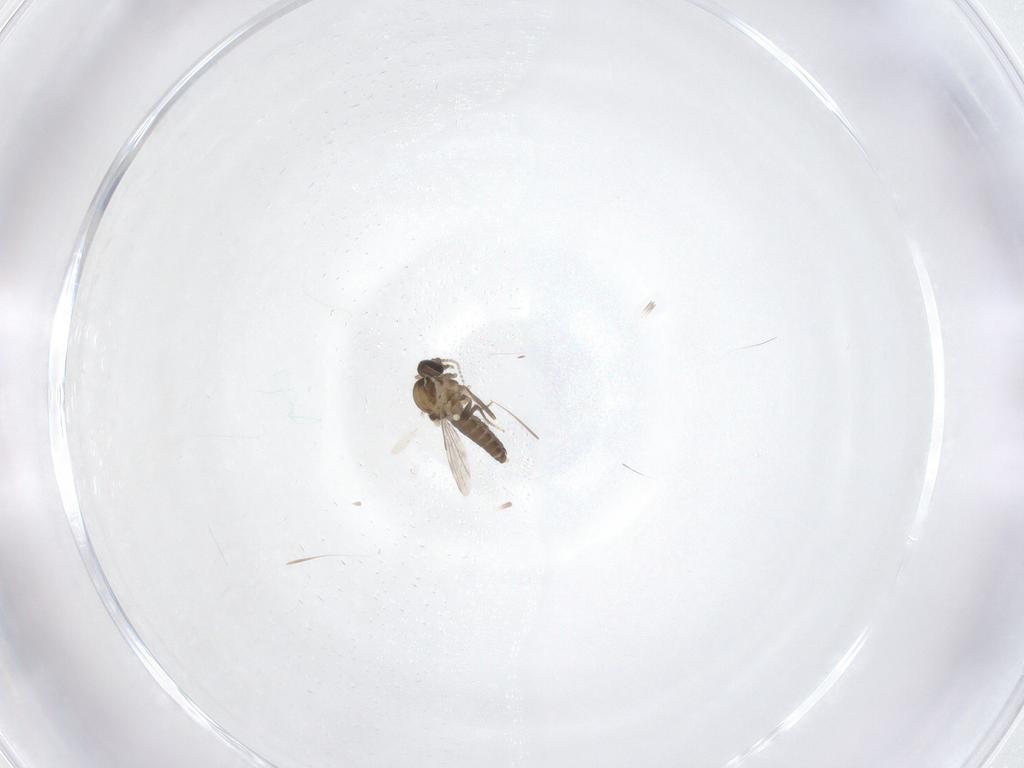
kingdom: Animalia
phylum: Arthropoda
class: Insecta
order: Diptera
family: Ceratopogonidae
